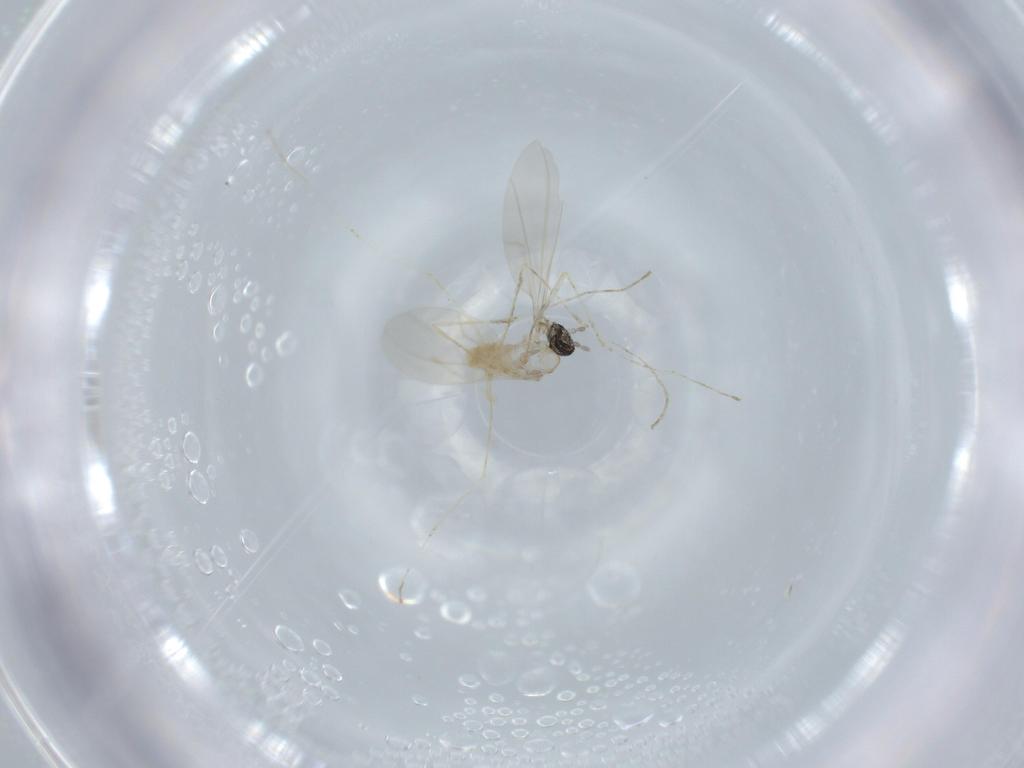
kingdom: Animalia
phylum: Arthropoda
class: Insecta
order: Diptera
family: Cecidomyiidae
